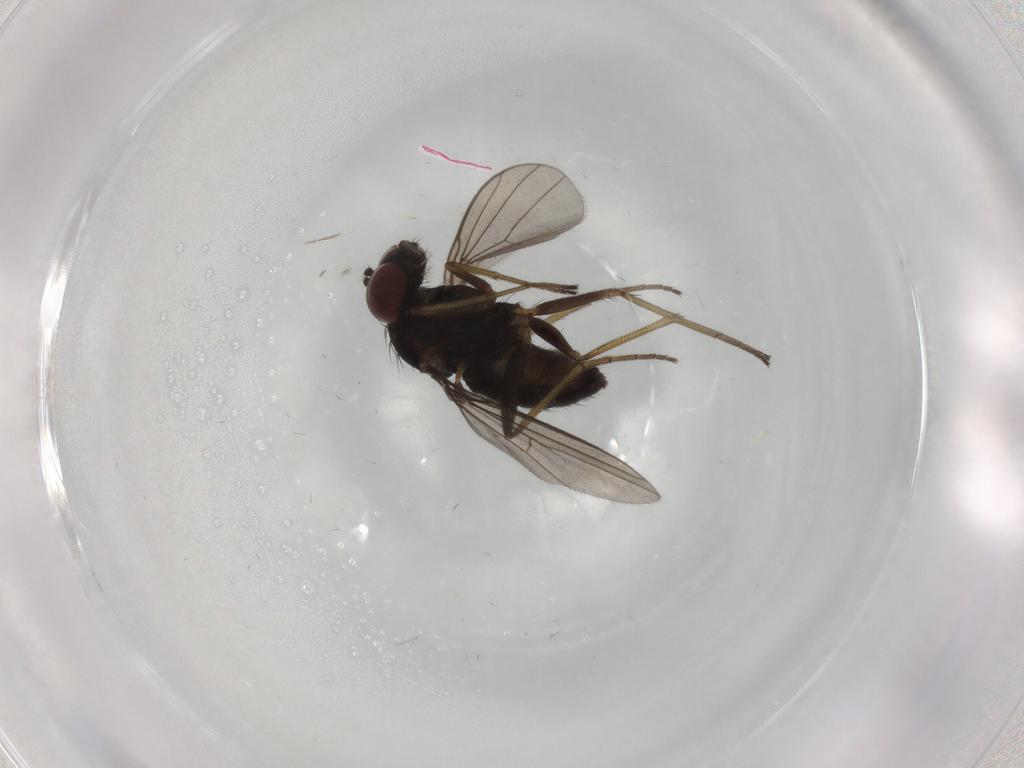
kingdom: Animalia
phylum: Arthropoda
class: Insecta
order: Diptera
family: Dolichopodidae
